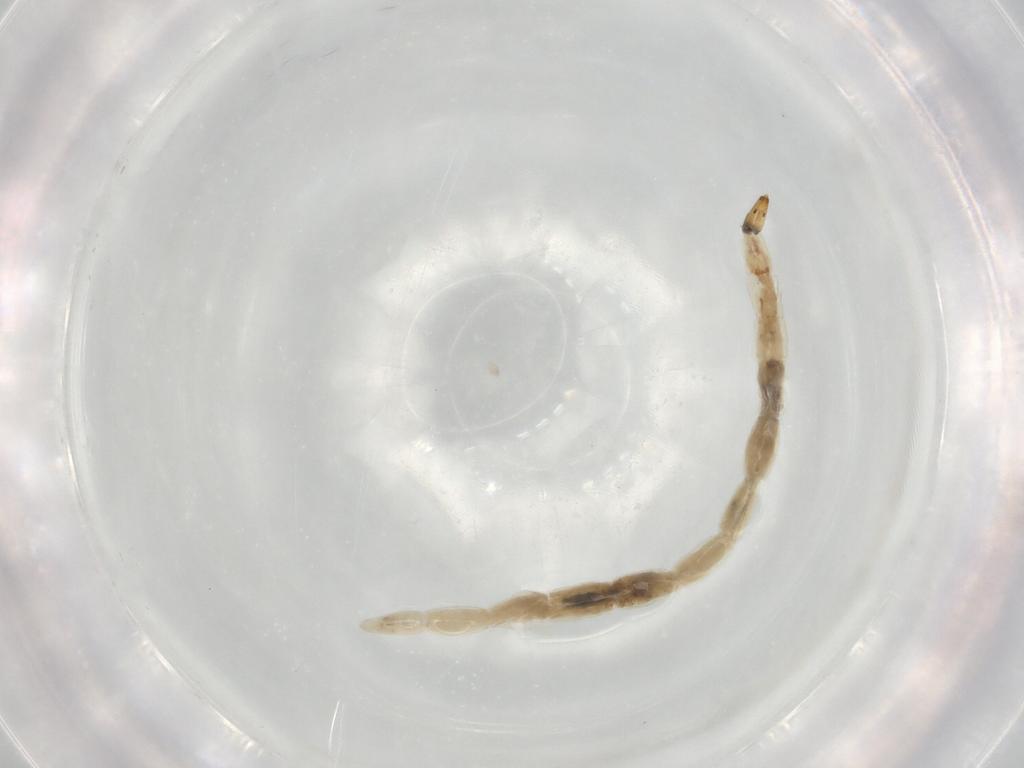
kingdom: Animalia
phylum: Arthropoda
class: Insecta
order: Diptera
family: Ceratopogonidae
